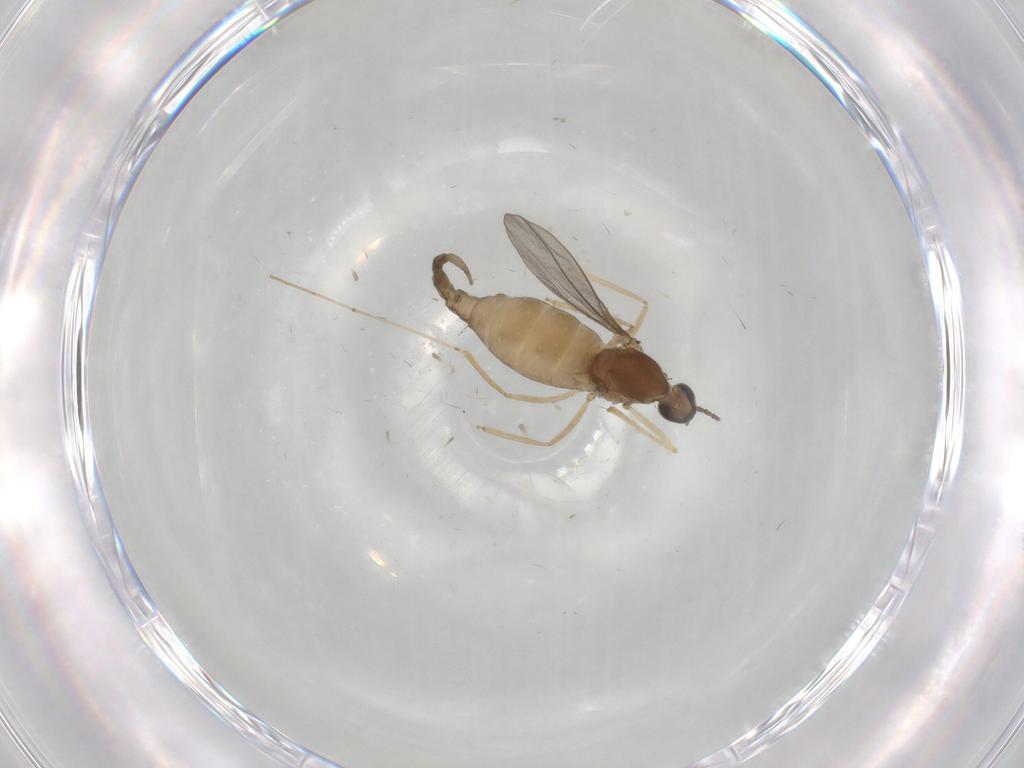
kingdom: Animalia
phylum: Arthropoda
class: Insecta
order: Diptera
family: Cecidomyiidae
